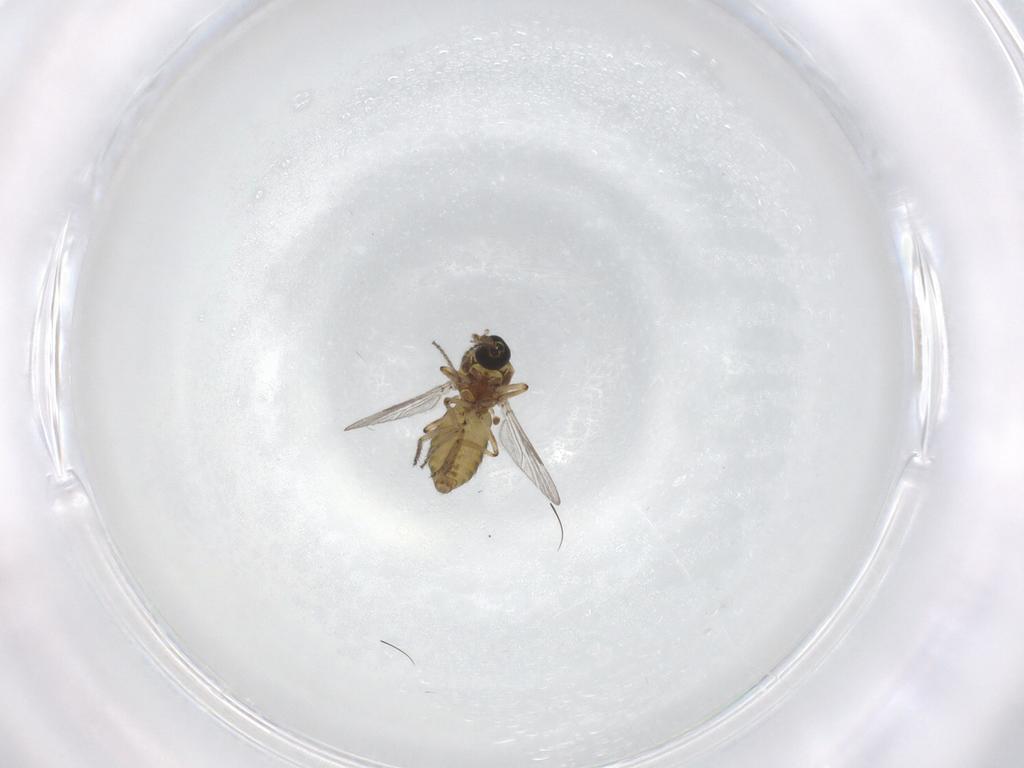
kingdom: Animalia
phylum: Arthropoda
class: Insecta
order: Diptera
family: Ceratopogonidae
